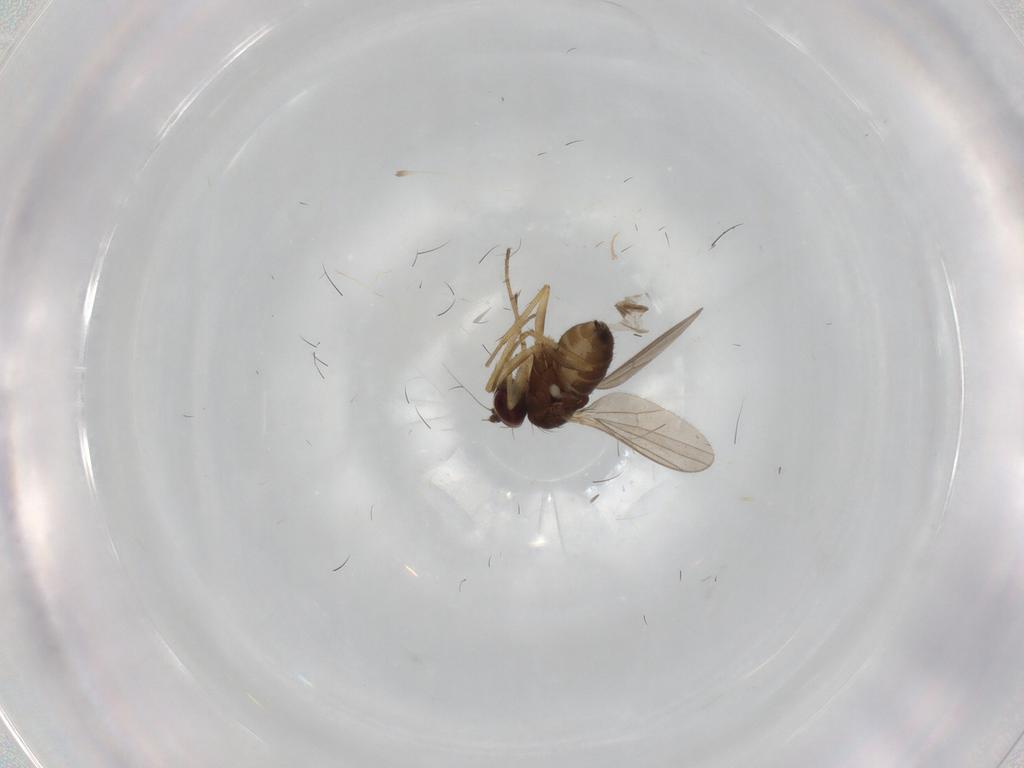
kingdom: Animalia
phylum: Arthropoda
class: Insecta
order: Diptera
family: Dolichopodidae
